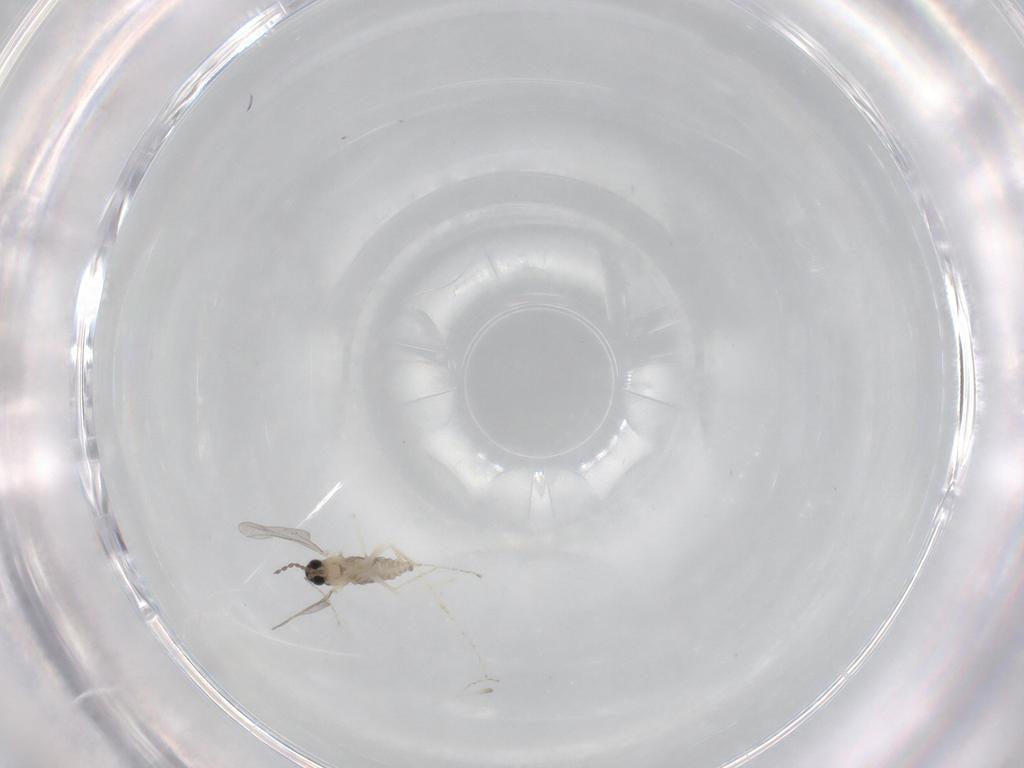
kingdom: Animalia
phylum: Arthropoda
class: Insecta
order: Diptera
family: Cecidomyiidae
